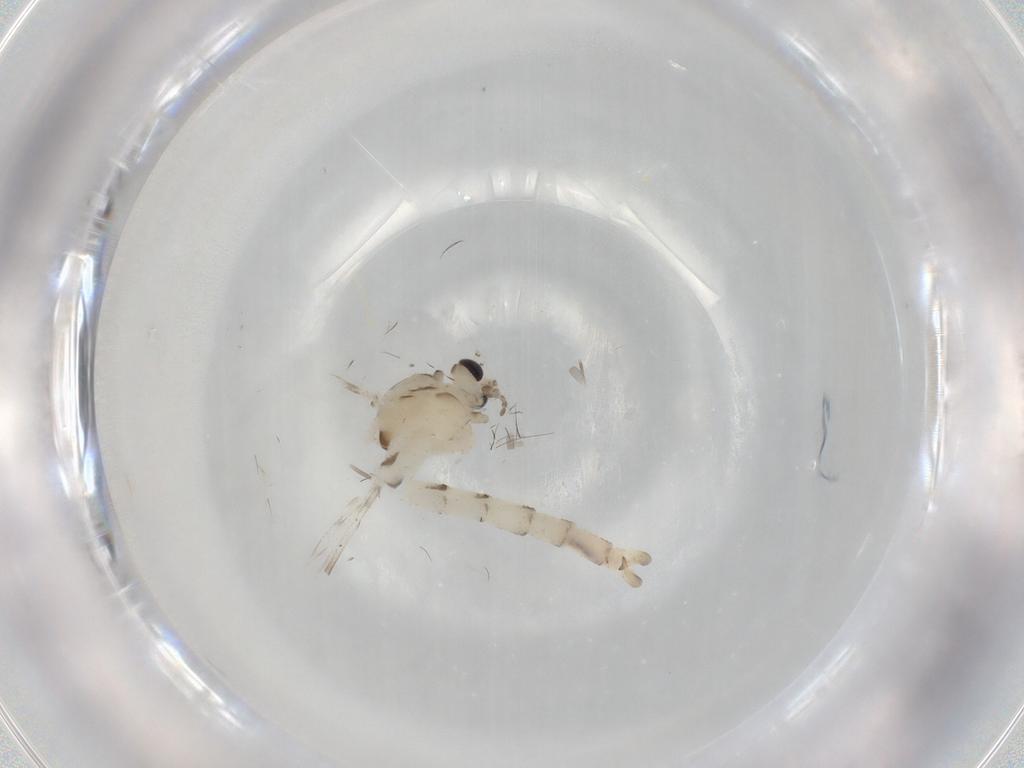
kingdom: Animalia
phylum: Arthropoda
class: Insecta
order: Diptera
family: Chaoboridae
